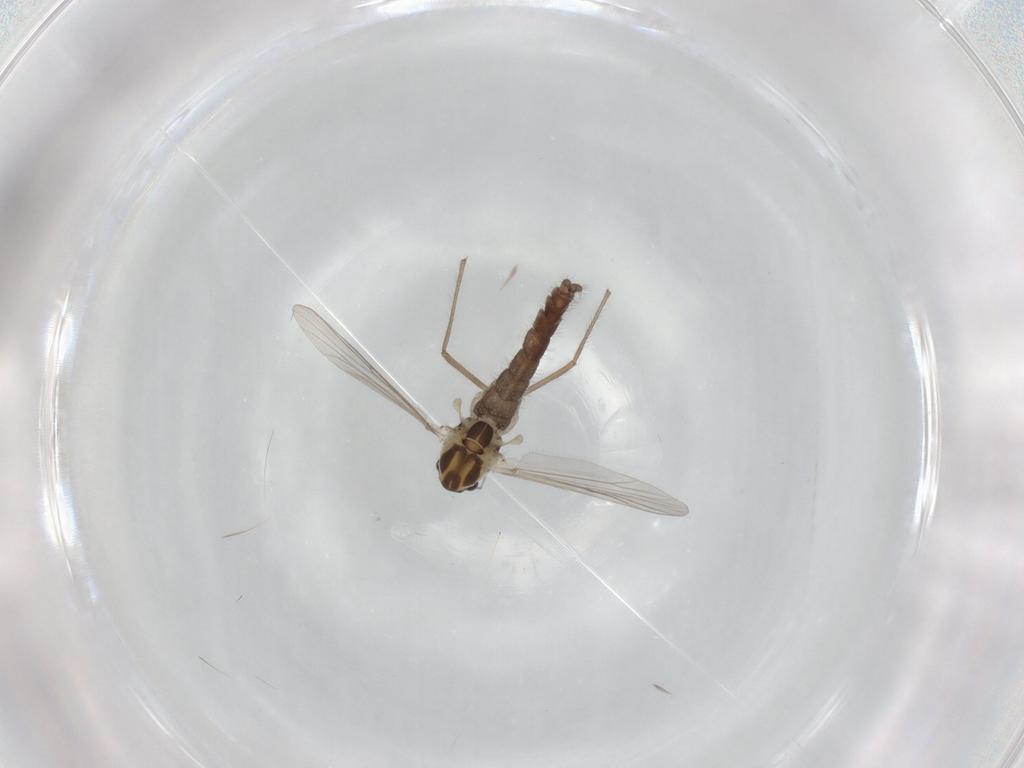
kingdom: Animalia
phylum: Arthropoda
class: Insecta
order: Diptera
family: Chironomidae
